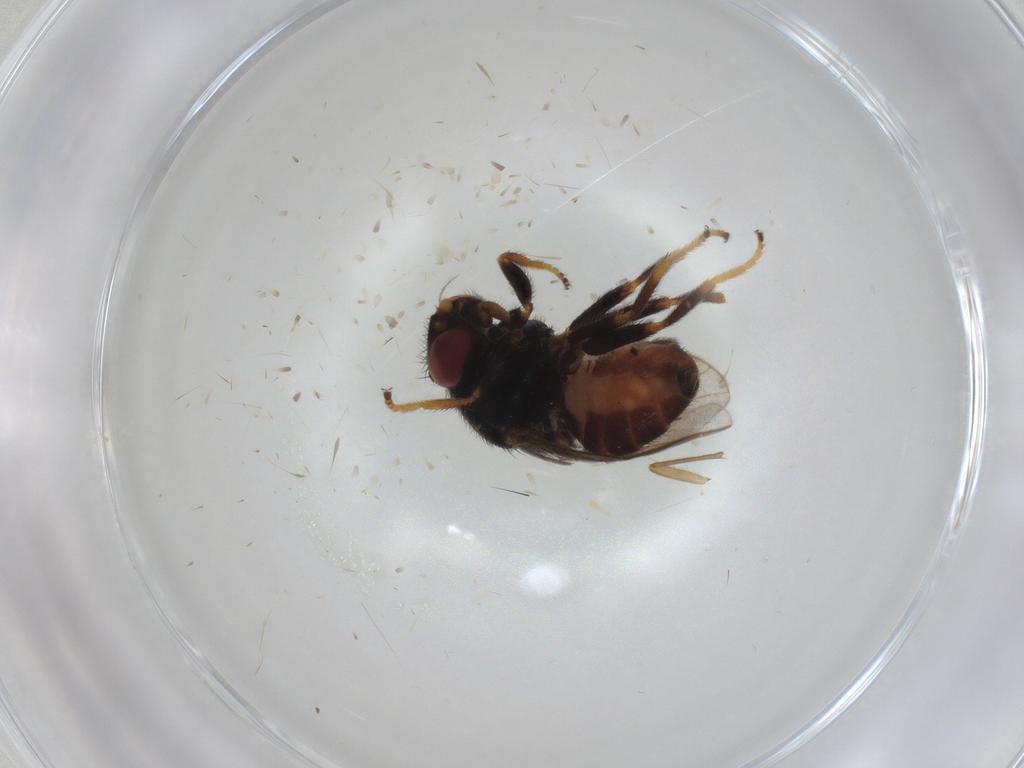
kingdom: Animalia
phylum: Arthropoda
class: Insecta
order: Diptera
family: Chloropidae
